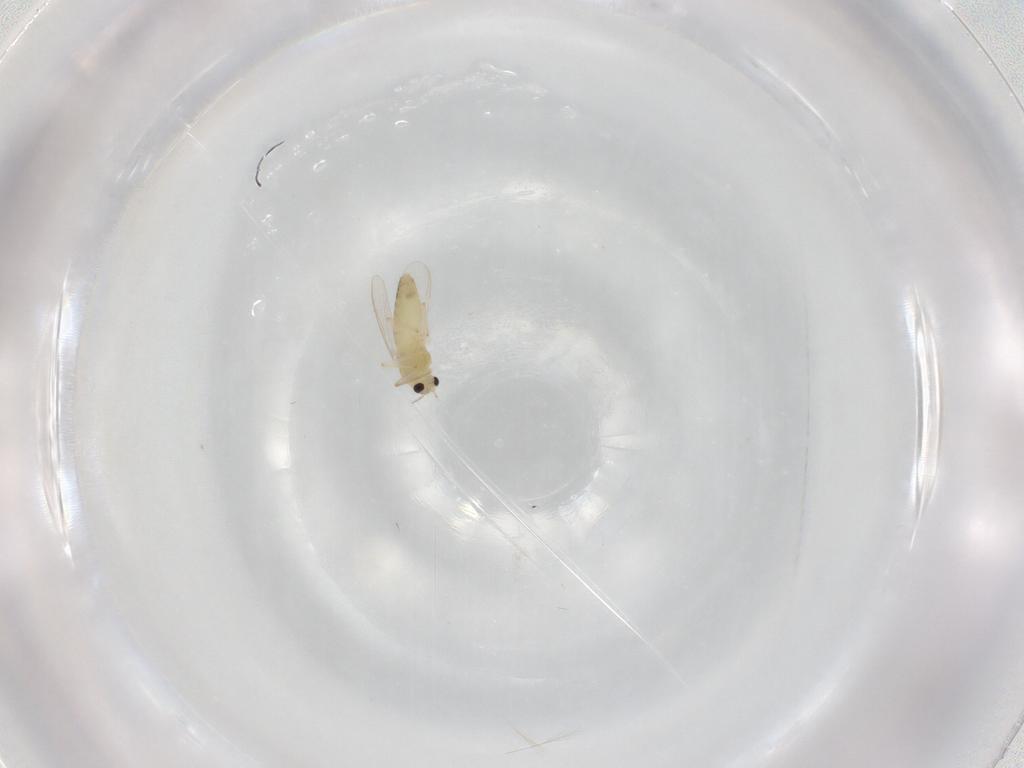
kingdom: Animalia
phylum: Arthropoda
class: Insecta
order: Diptera
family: Chironomidae
